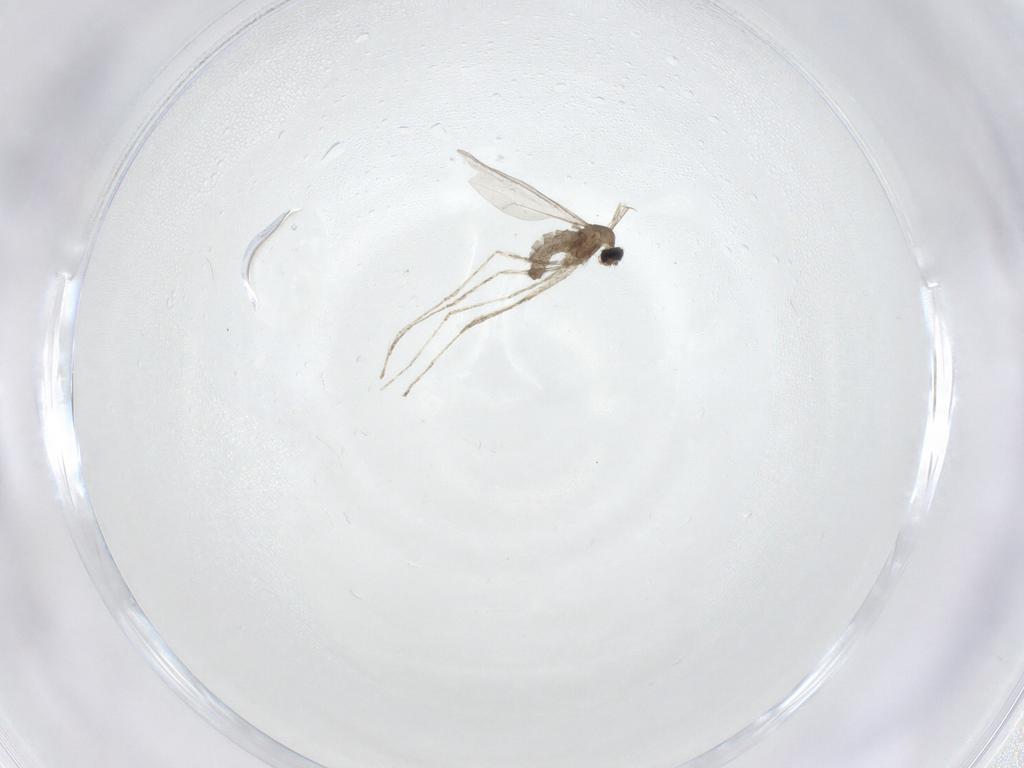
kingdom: Animalia
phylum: Arthropoda
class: Insecta
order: Diptera
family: Cecidomyiidae
